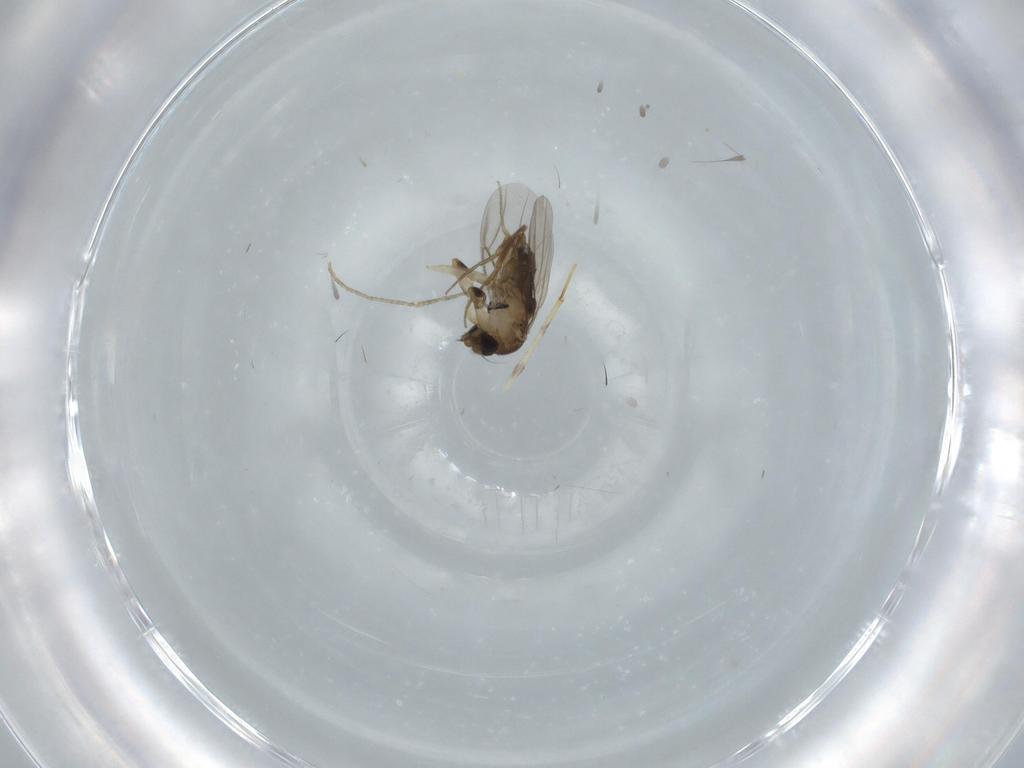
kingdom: Animalia
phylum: Arthropoda
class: Insecta
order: Diptera
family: Phoridae
